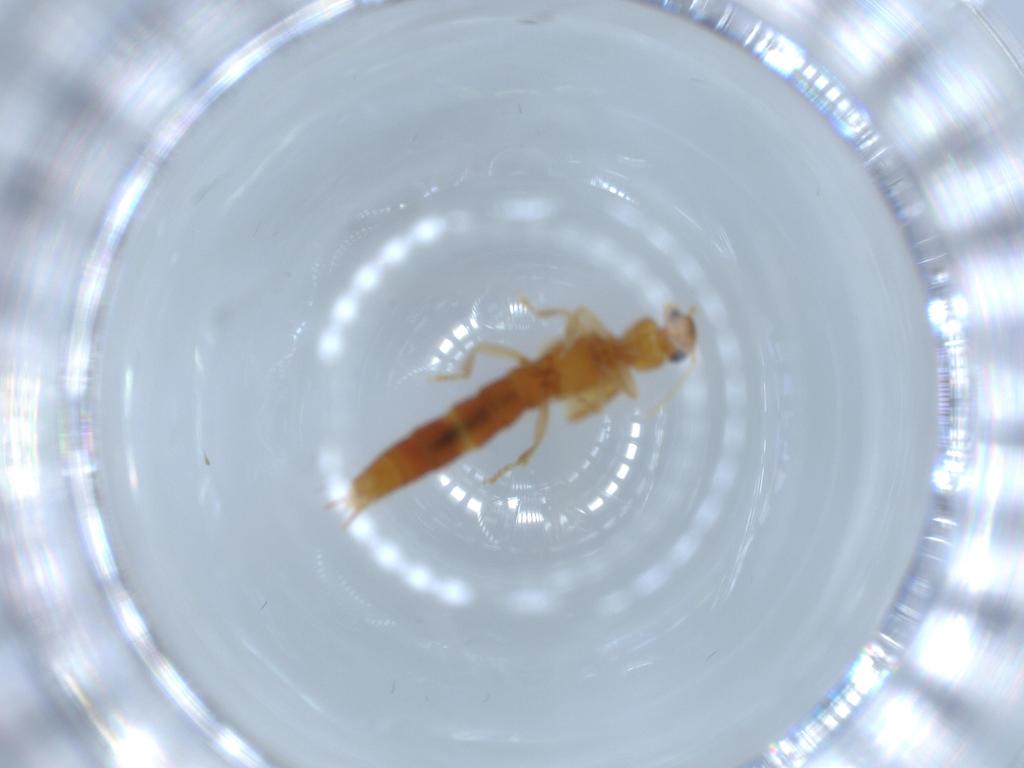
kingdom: Animalia
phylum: Arthropoda
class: Insecta
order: Coleoptera
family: Staphylinidae
